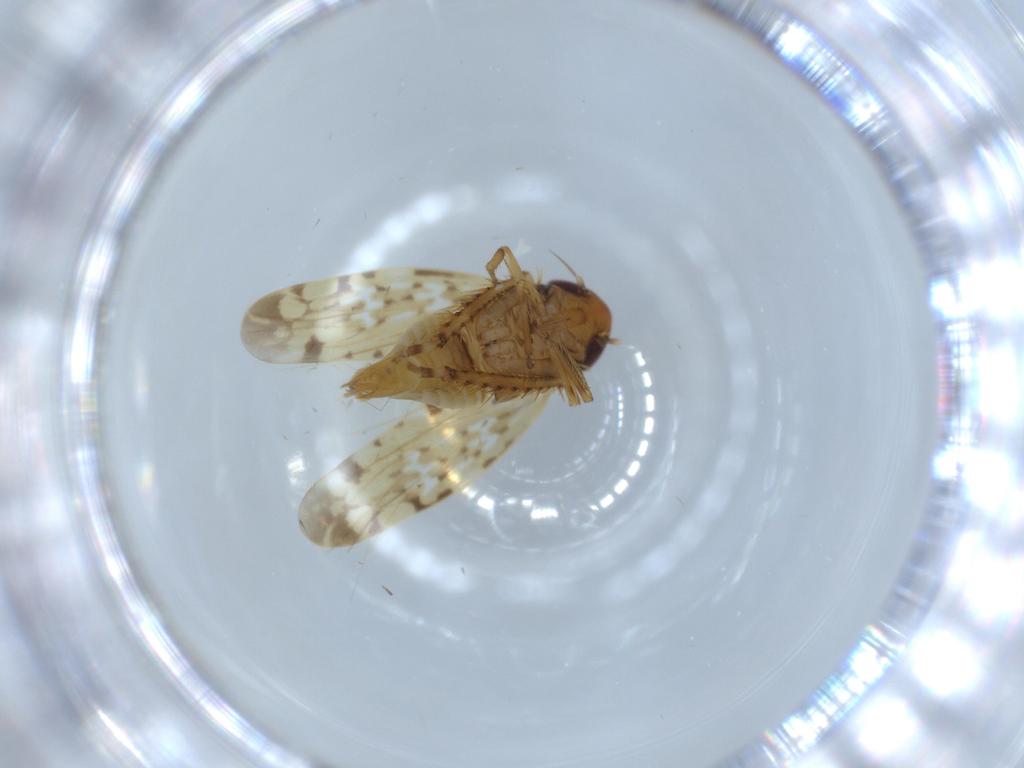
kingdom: Animalia
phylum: Arthropoda
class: Insecta
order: Hemiptera
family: Cicadellidae
